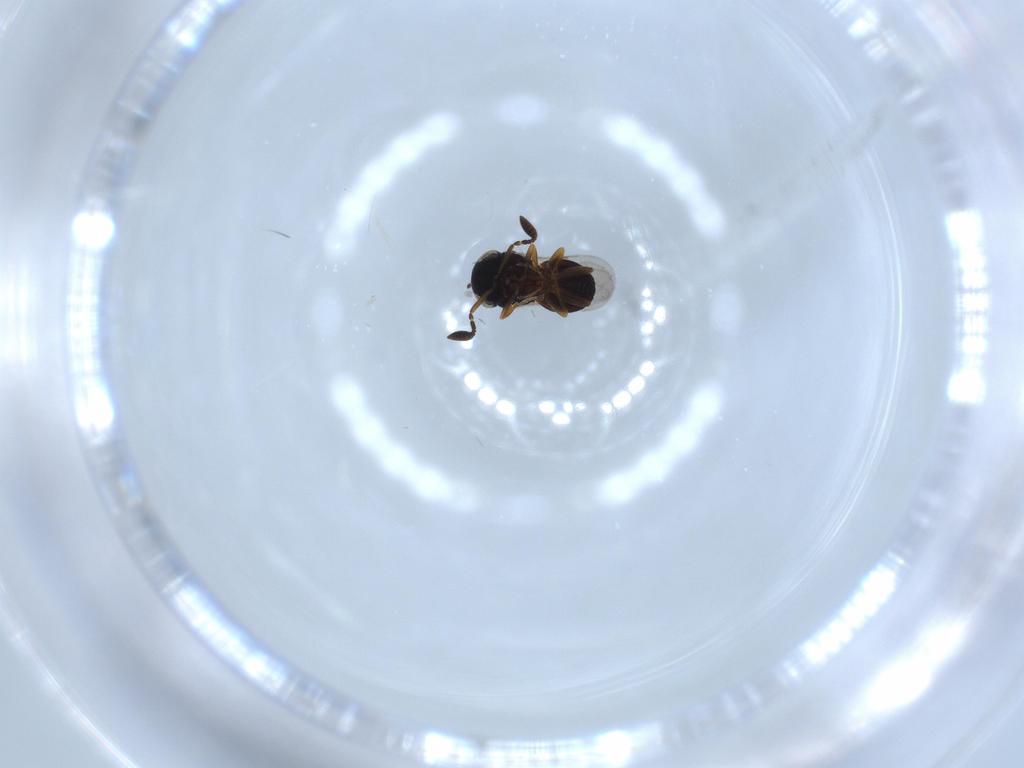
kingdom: Animalia
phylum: Arthropoda
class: Insecta
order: Coleoptera
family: Curculionidae
